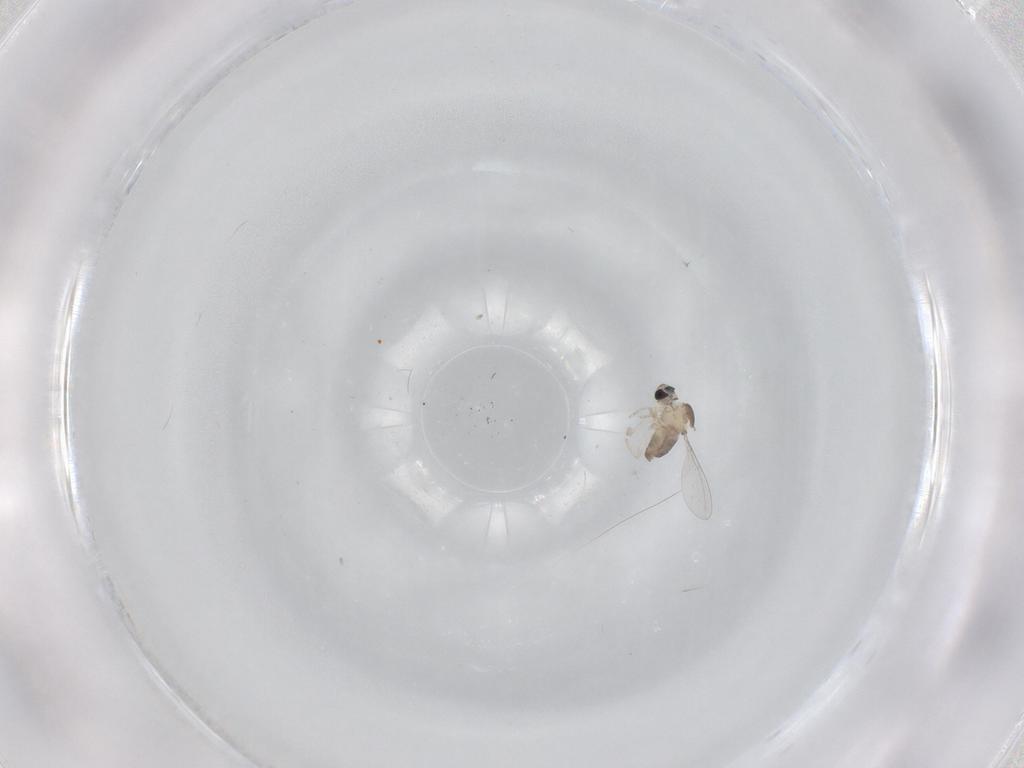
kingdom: Animalia
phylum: Arthropoda
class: Insecta
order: Diptera
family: Cecidomyiidae
